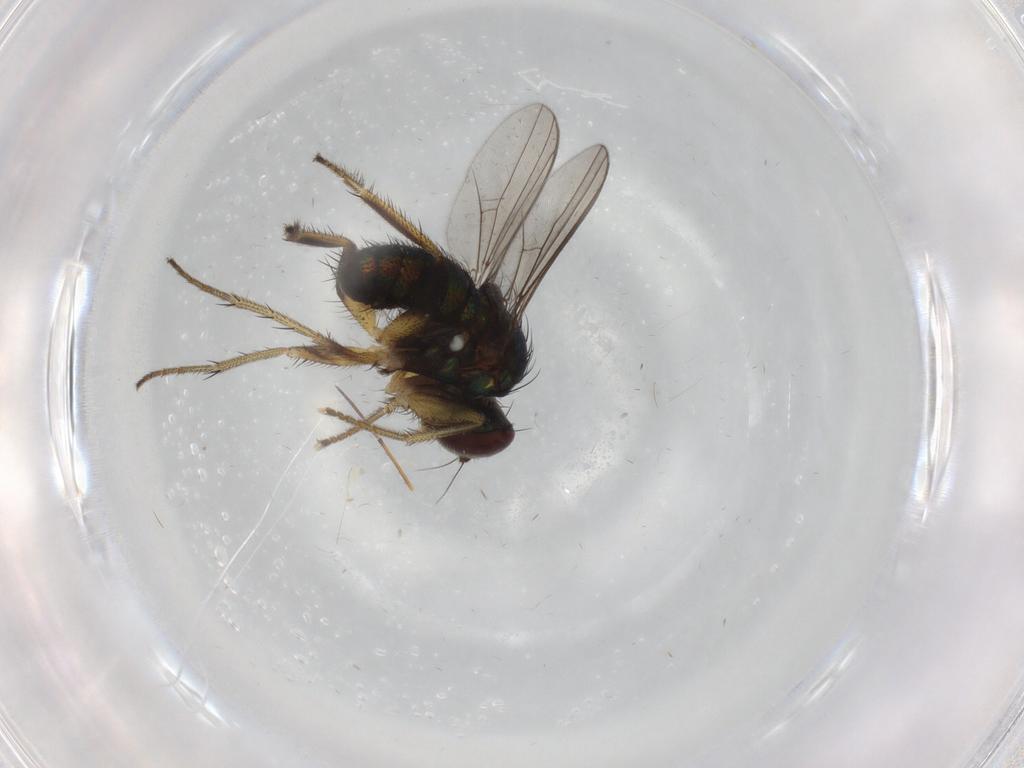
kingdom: Animalia
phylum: Arthropoda
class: Insecta
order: Diptera
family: Dolichopodidae
